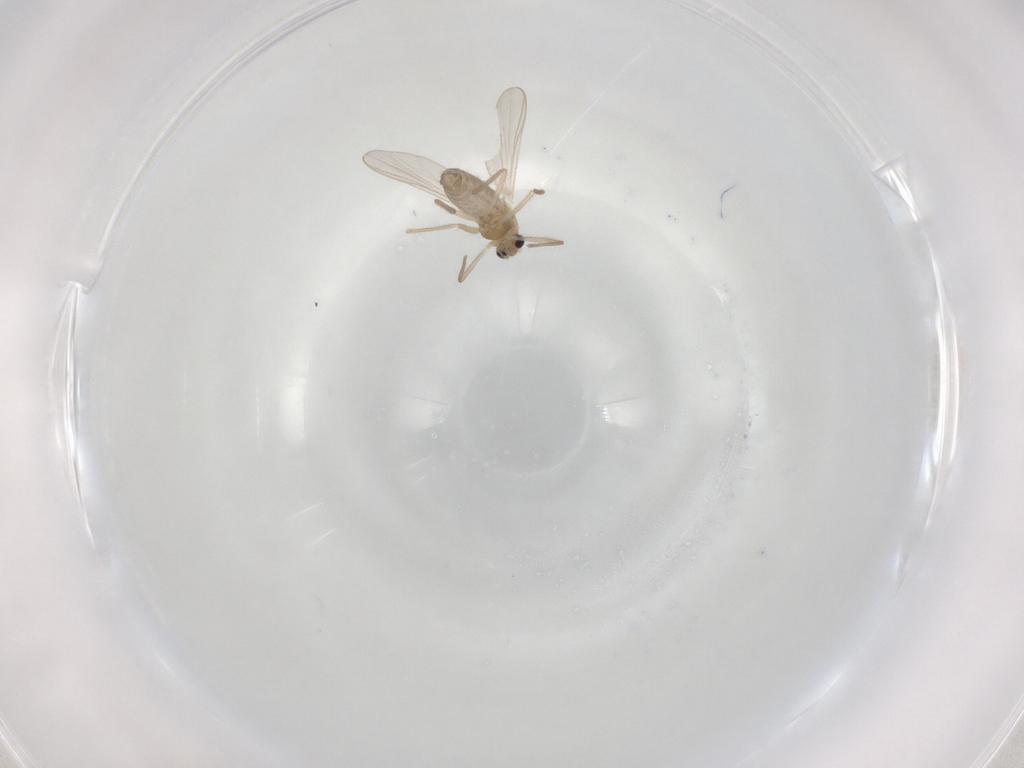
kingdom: Animalia
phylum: Arthropoda
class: Insecta
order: Diptera
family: Chironomidae
